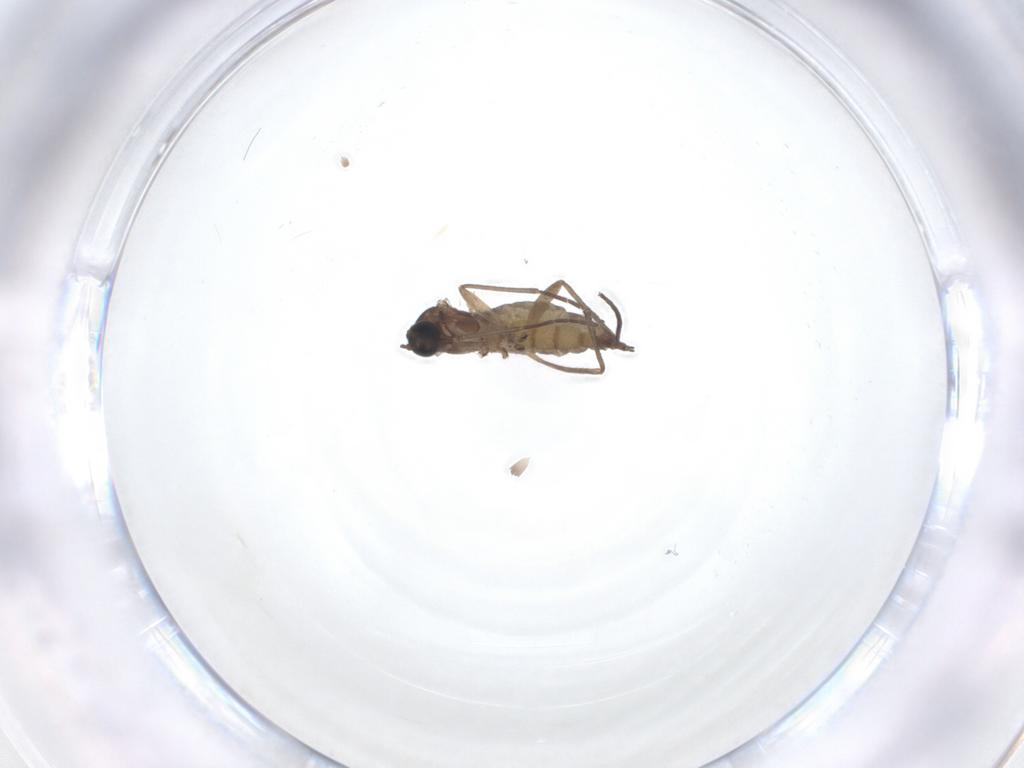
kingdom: Animalia
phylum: Arthropoda
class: Insecta
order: Diptera
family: Sciaridae
